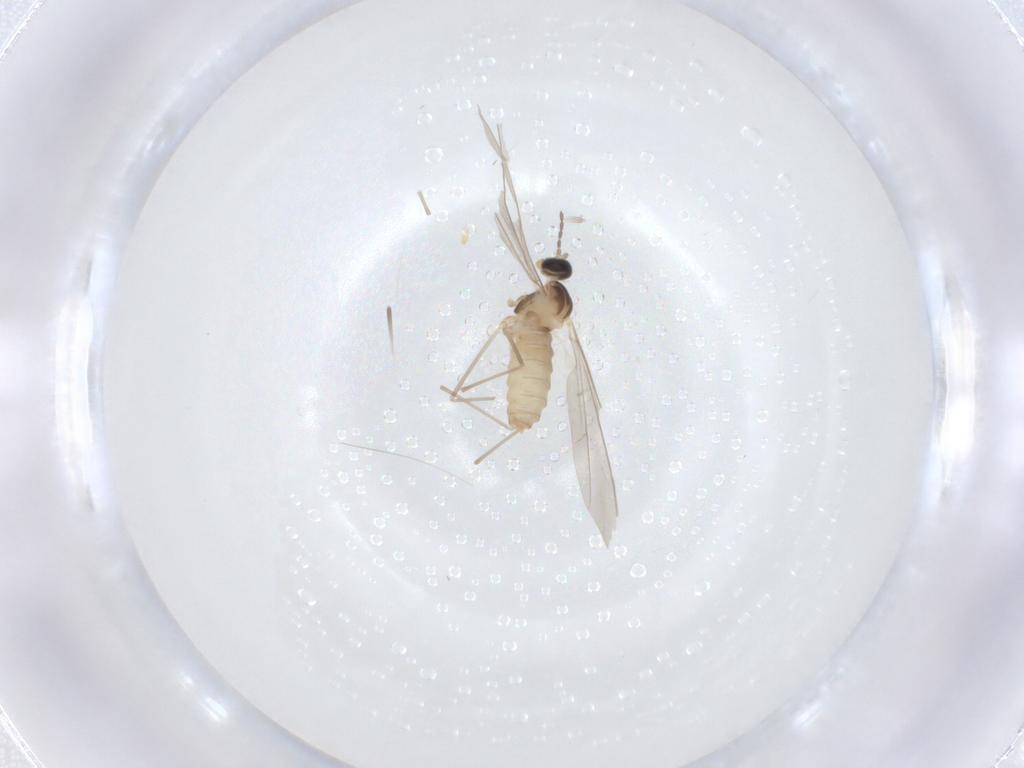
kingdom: Animalia
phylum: Arthropoda
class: Insecta
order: Diptera
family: Cecidomyiidae
